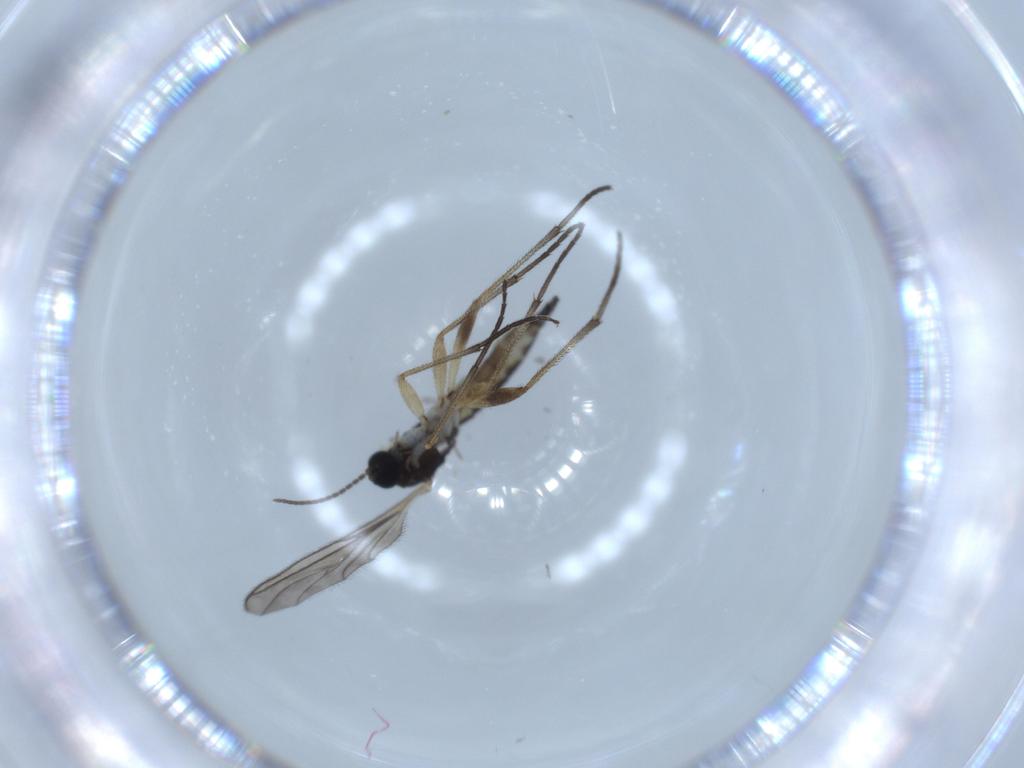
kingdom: Animalia
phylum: Arthropoda
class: Insecta
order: Diptera
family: Sciaridae
